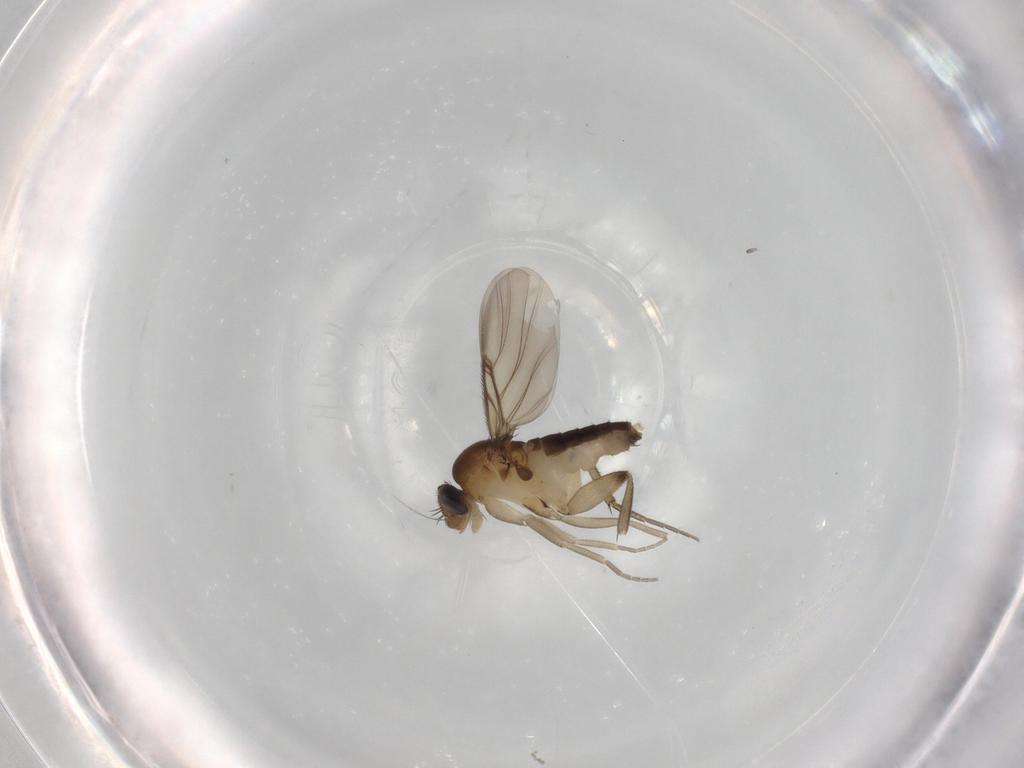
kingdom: Animalia
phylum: Arthropoda
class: Insecta
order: Diptera
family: Phoridae
